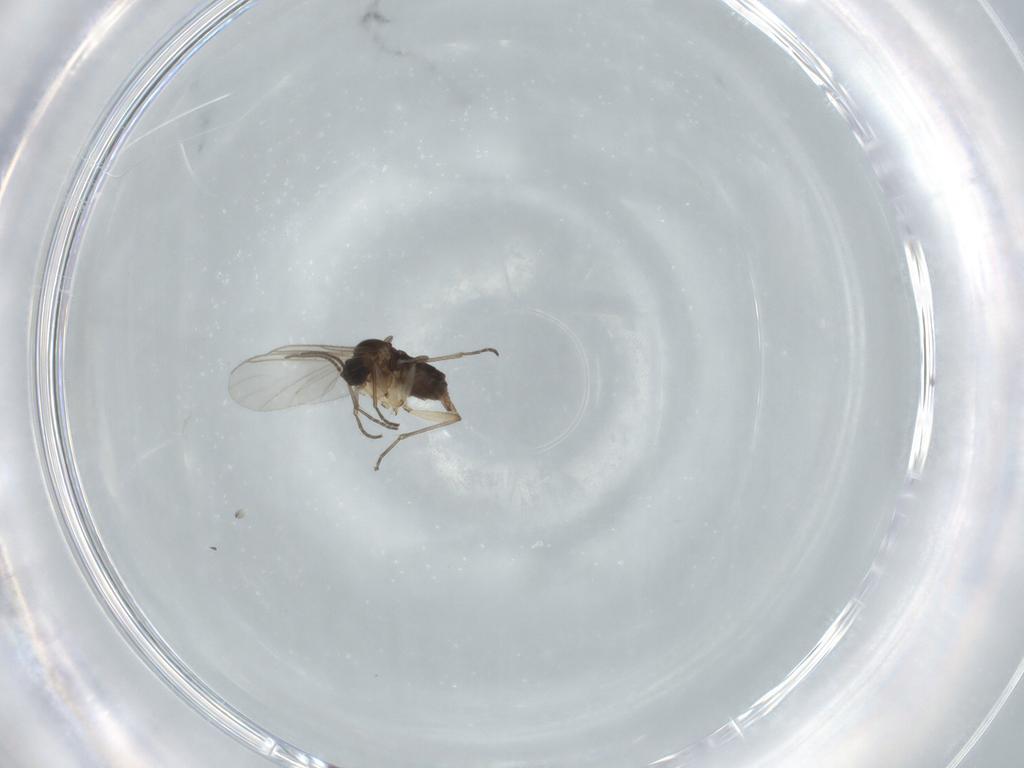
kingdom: Animalia
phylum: Arthropoda
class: Insecta
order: Diptera
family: Sciaridae
